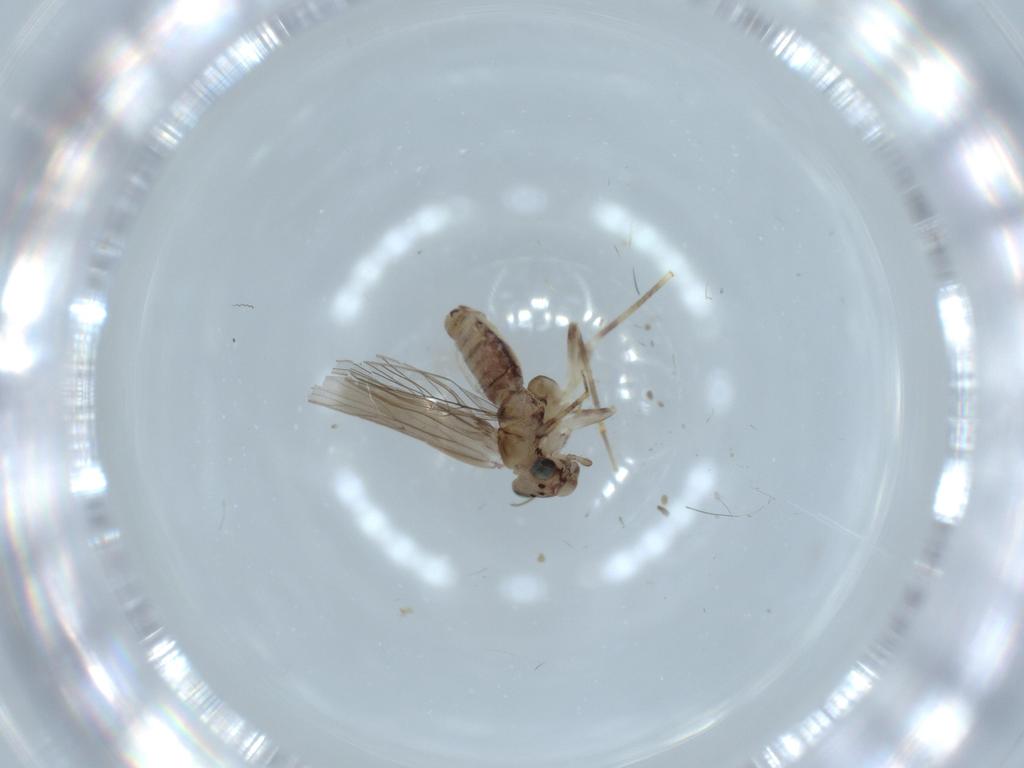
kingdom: Animalia
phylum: Arthropoda
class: Insecta
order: Psocodea
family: Lepidopsocidae
